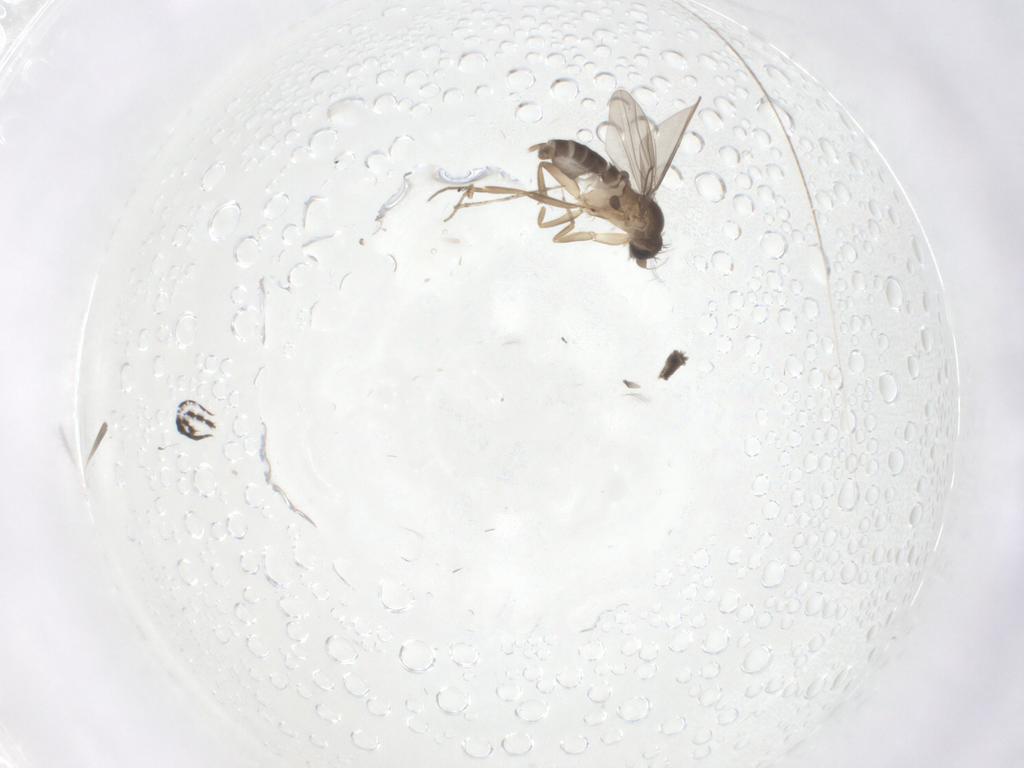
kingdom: Animalia
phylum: Arthropoda
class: Insecta
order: Diptera
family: Phoridae
